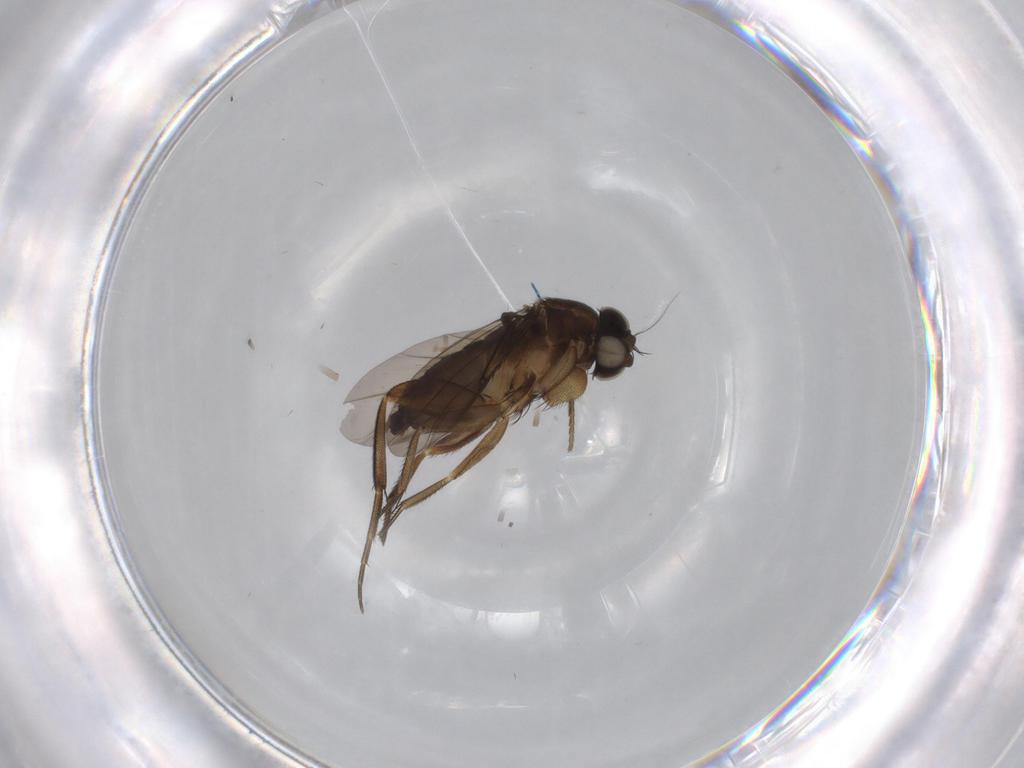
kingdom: Animalia
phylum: Arthropoda
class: Insecta
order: Diptera
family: Phoridae
